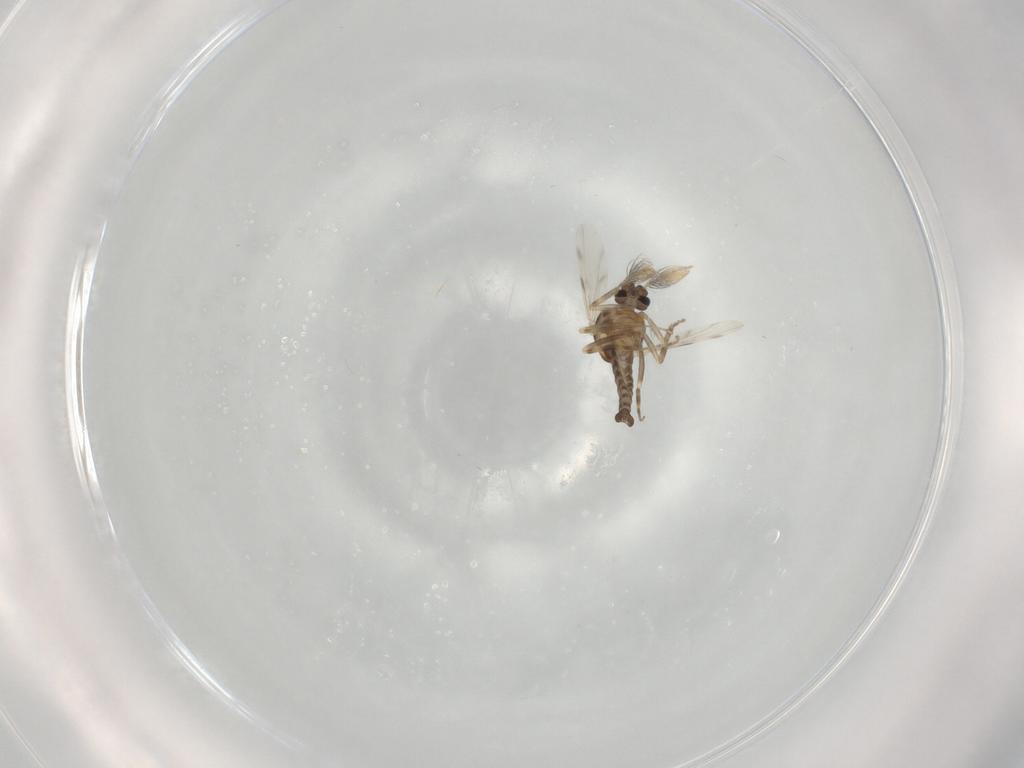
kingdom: Animalia
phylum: Arthropoda
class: Insecta
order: Diptera
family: Ceratopogonidae
